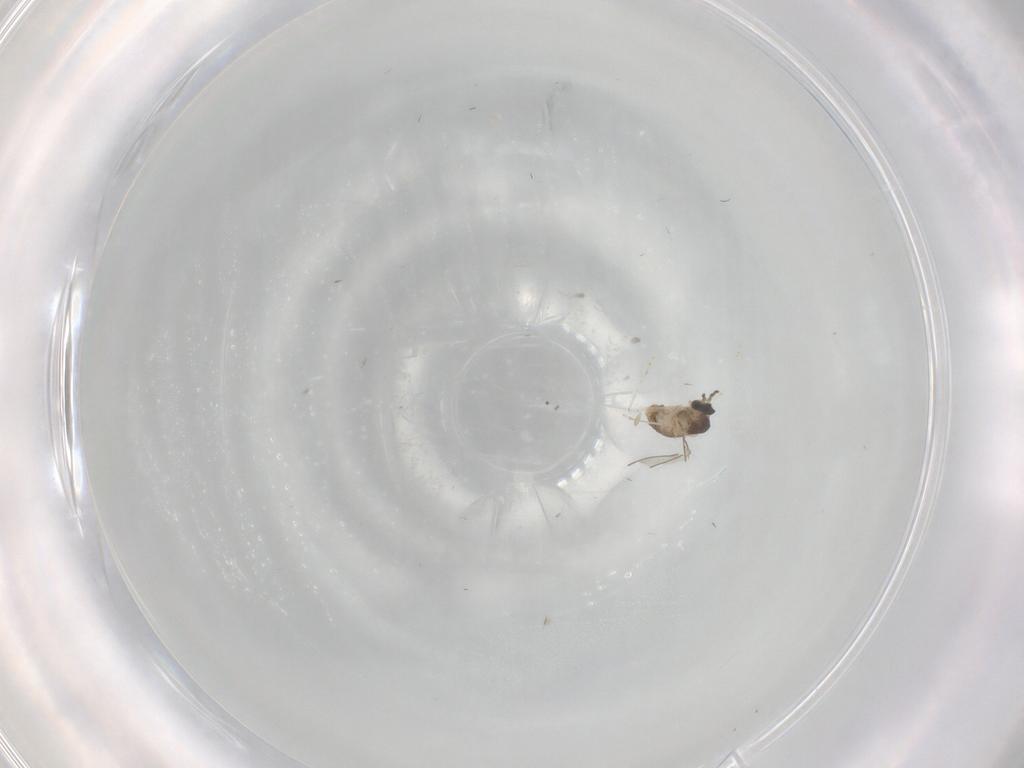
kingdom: Animalia
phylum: Arthropoda
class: Insecta
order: Diptera
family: Cecidomyiidae
